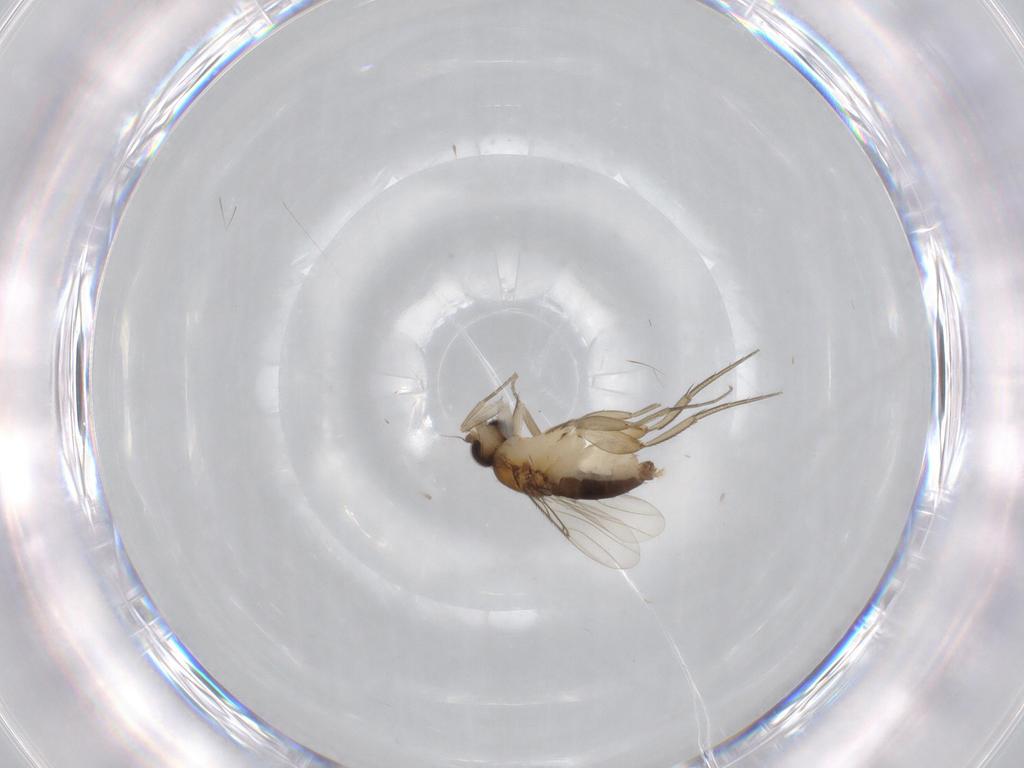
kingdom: Animalia
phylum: Arthropoda
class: Insecta
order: Diptera
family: Phoridae
